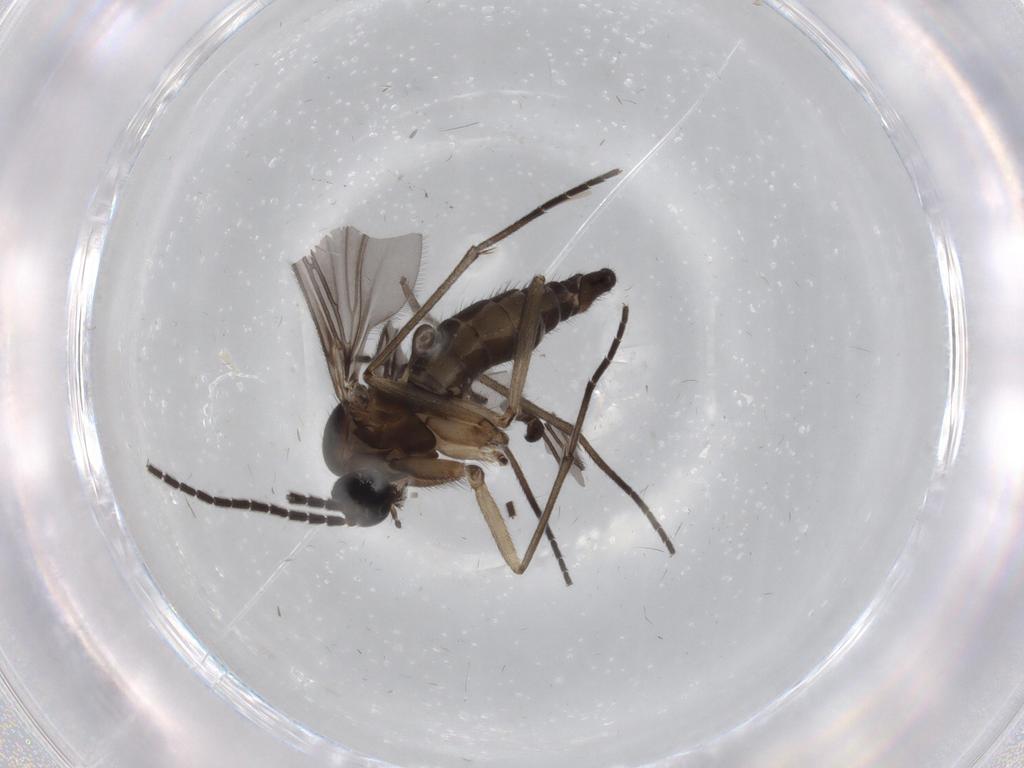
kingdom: Animalia
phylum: Arthropoda
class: Insecta
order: Diptera
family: Sciaridae
